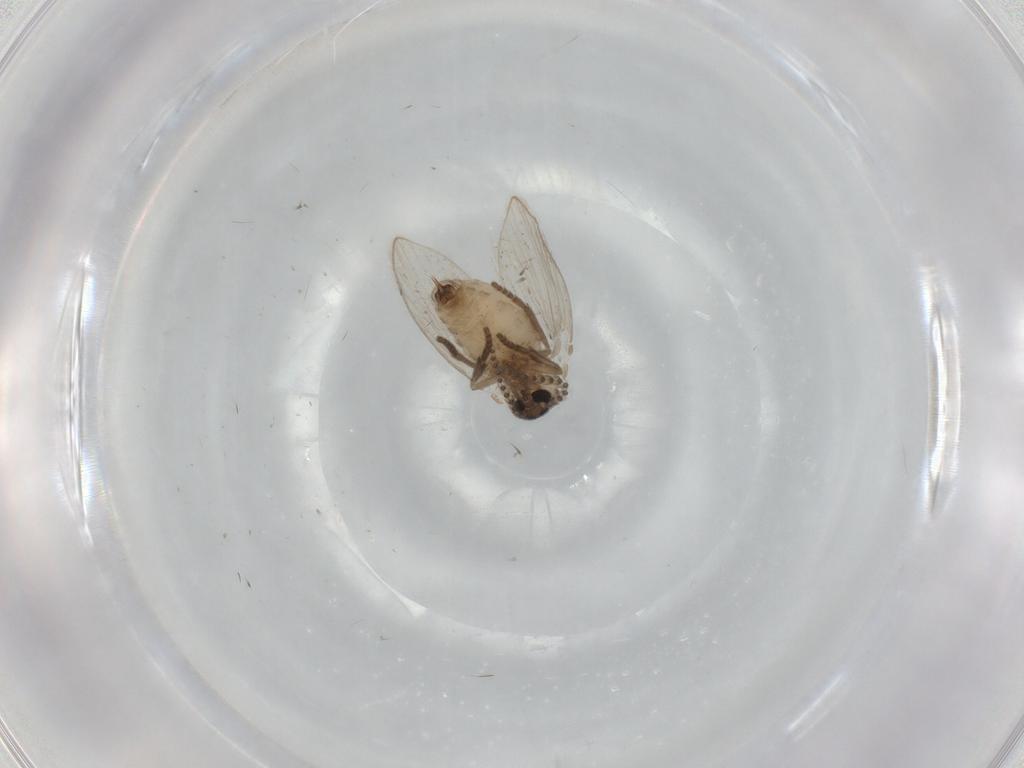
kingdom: Animalia
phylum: Arthropoda
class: Insecta
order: Diptera
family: Psychodidae
